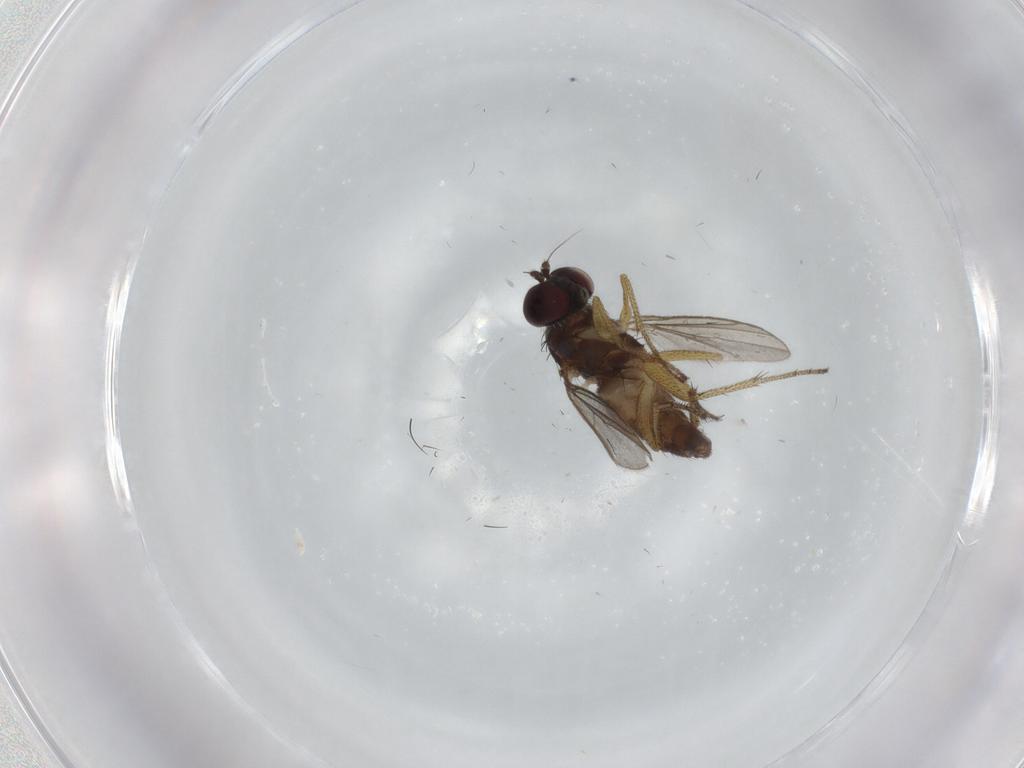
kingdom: Animalia
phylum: Arthropoda
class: Insecta
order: Diptera
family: Dolichopodidae
